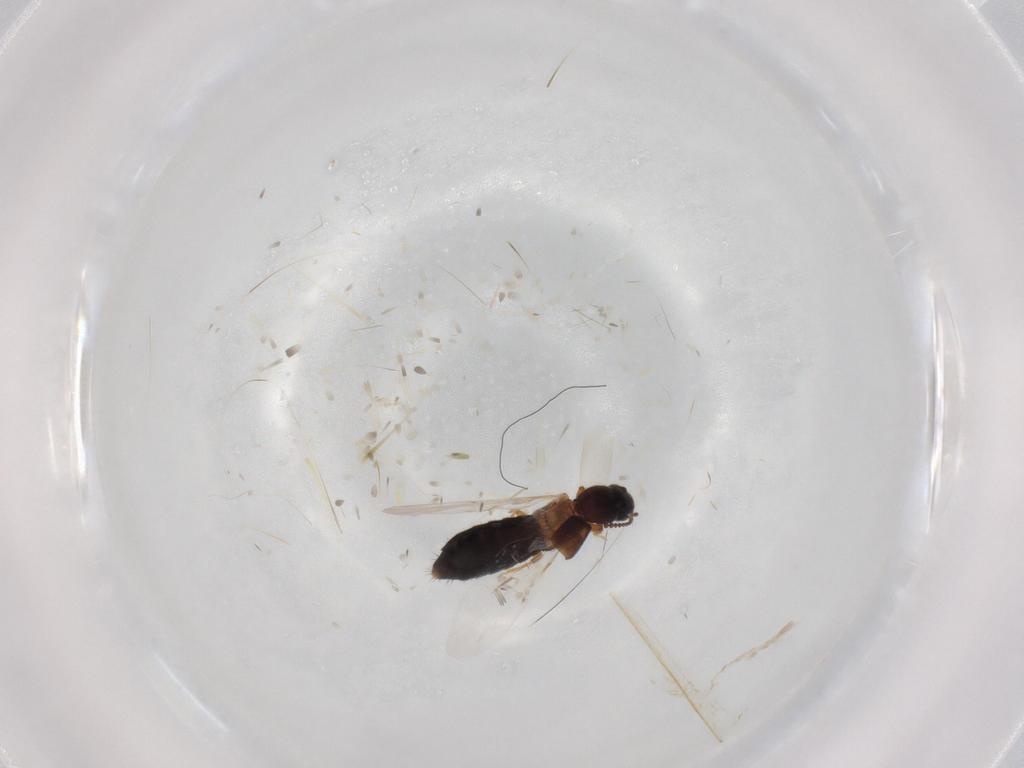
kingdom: Animalia
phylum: Arthropoda
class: Insecta
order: Coleoptera
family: Staphylinidae
